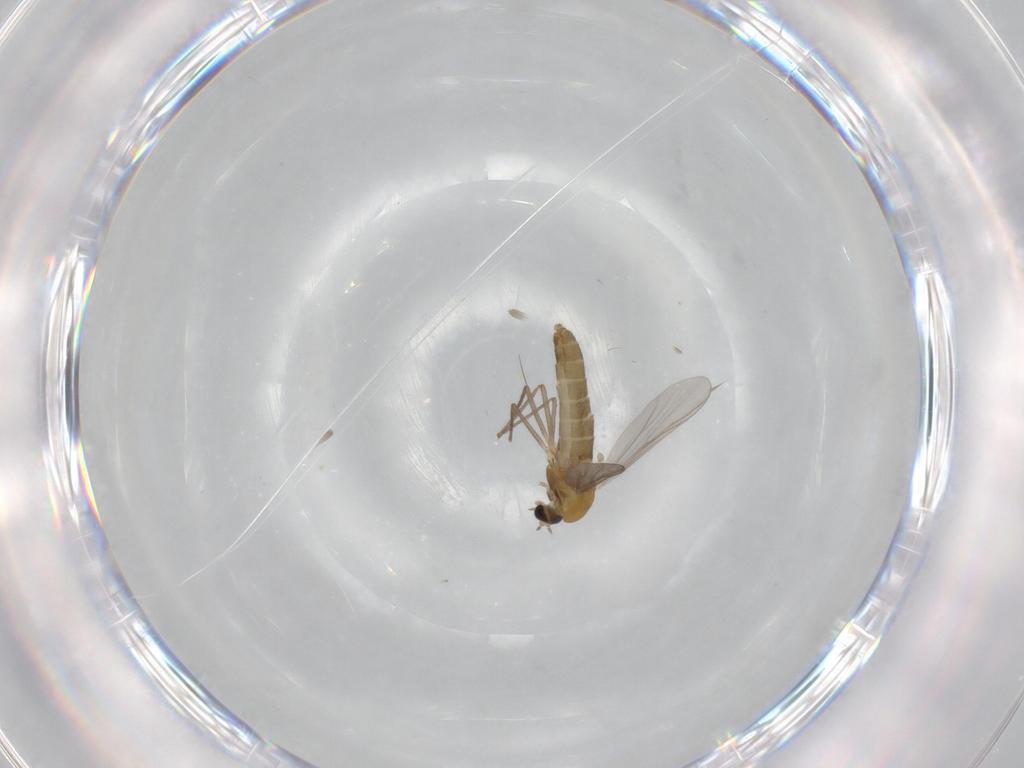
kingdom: Animalia
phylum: Arthropoda
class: Insecta
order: Diptera
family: Chironomidae
